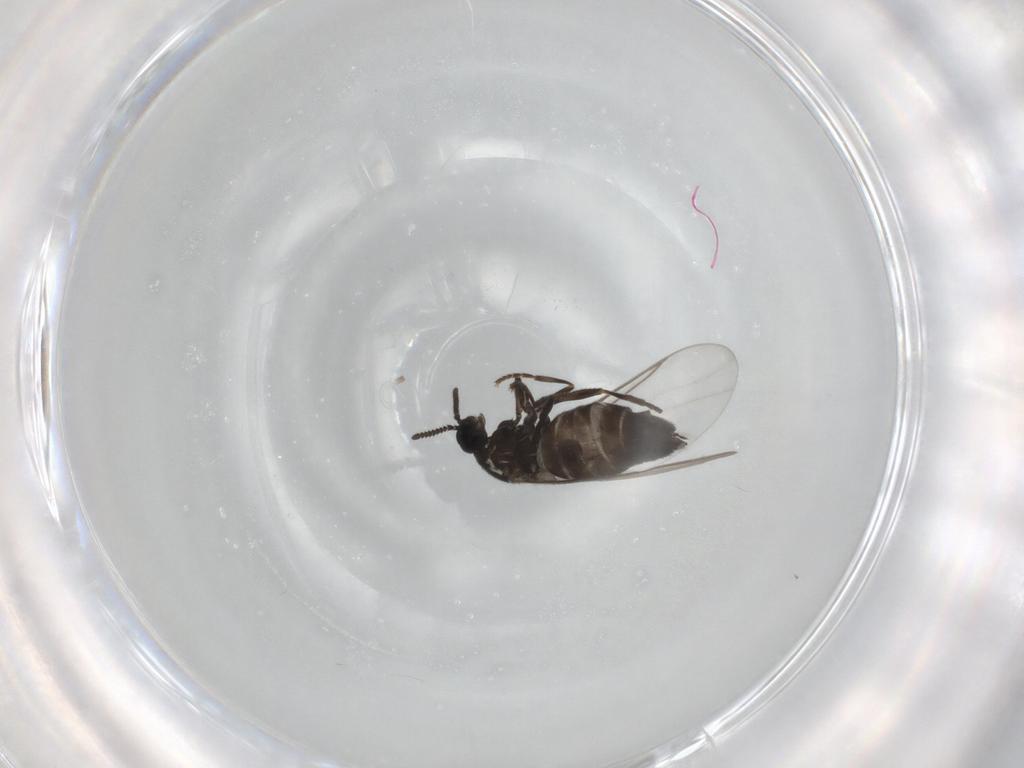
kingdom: Animalia
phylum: Arthropoda
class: Insecta
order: Diptera
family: Scatopsidae
